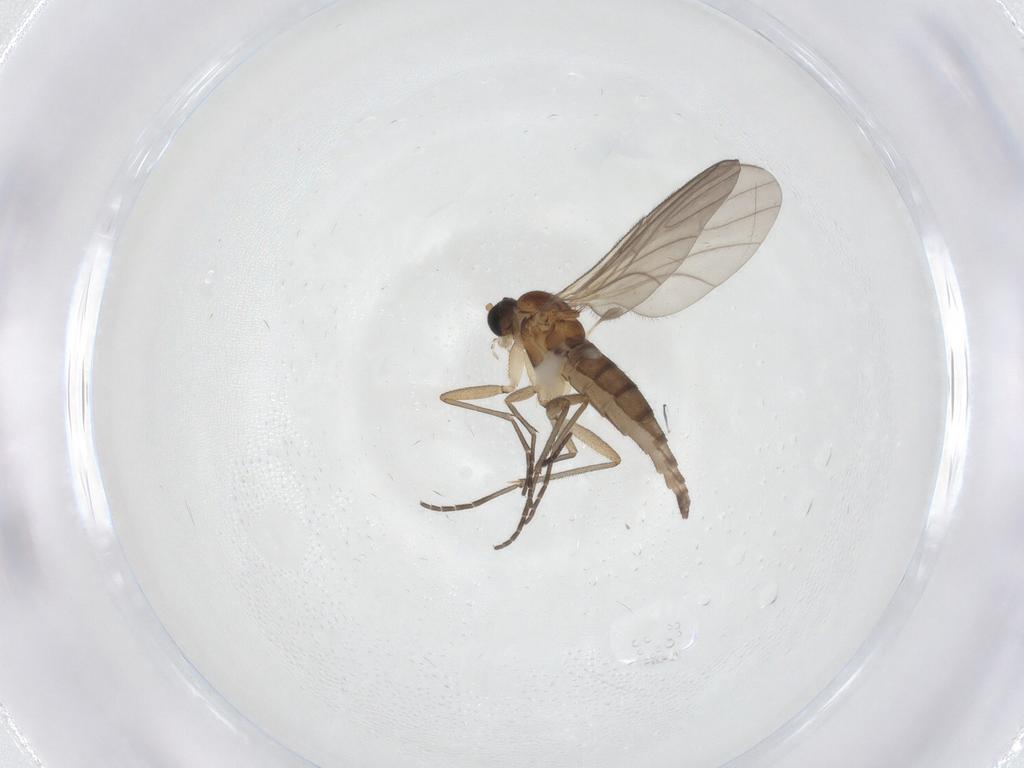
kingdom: Animalia
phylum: Arthropoda
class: Insecta
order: Diptera
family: Sciaridae
